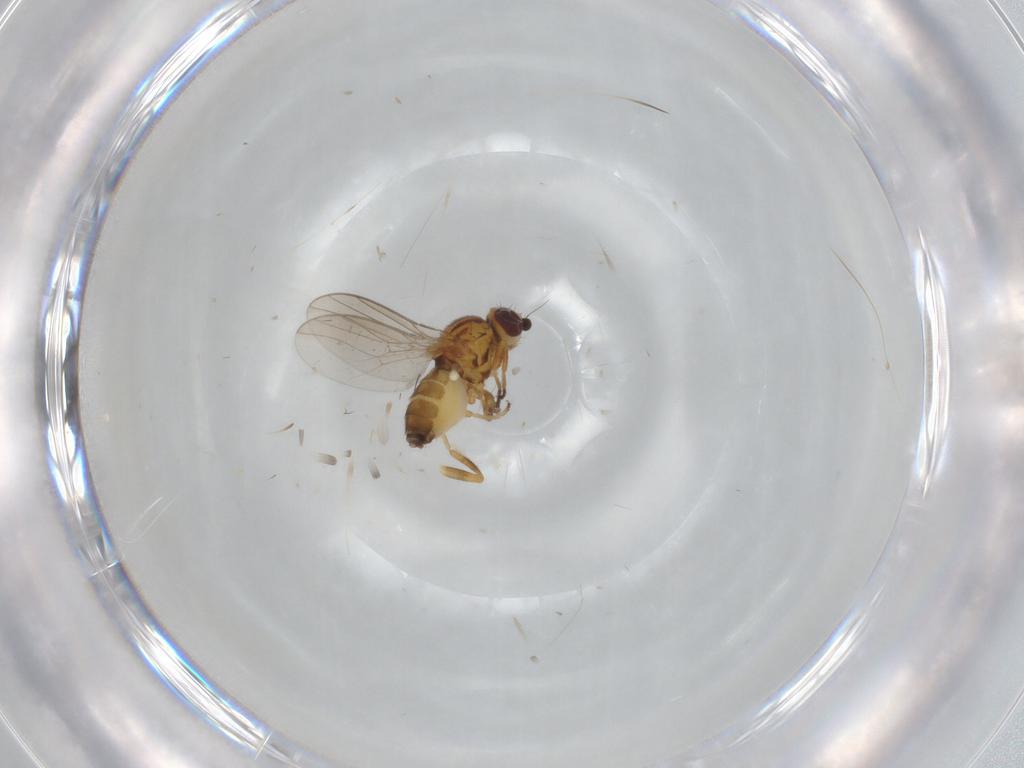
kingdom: Animalia
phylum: Arthropoda
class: Insecta
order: Diptera
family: Chloropidae
